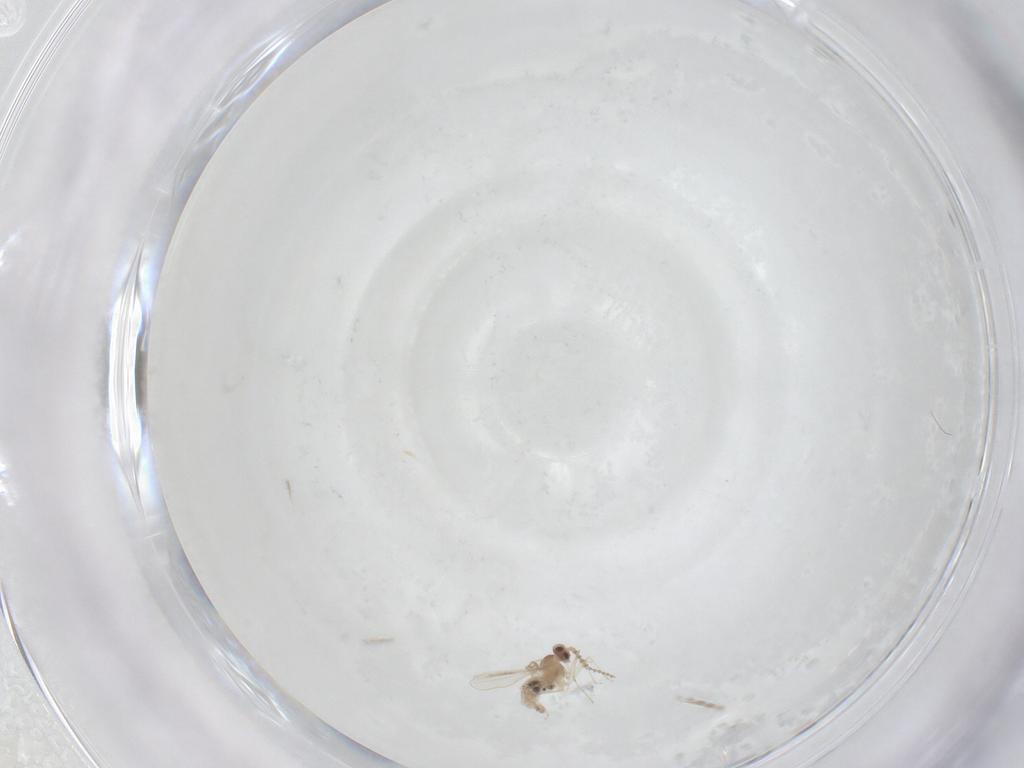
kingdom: Animalia
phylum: Arthropoda
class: Insecta
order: Diptera
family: Cecidomyiidae
